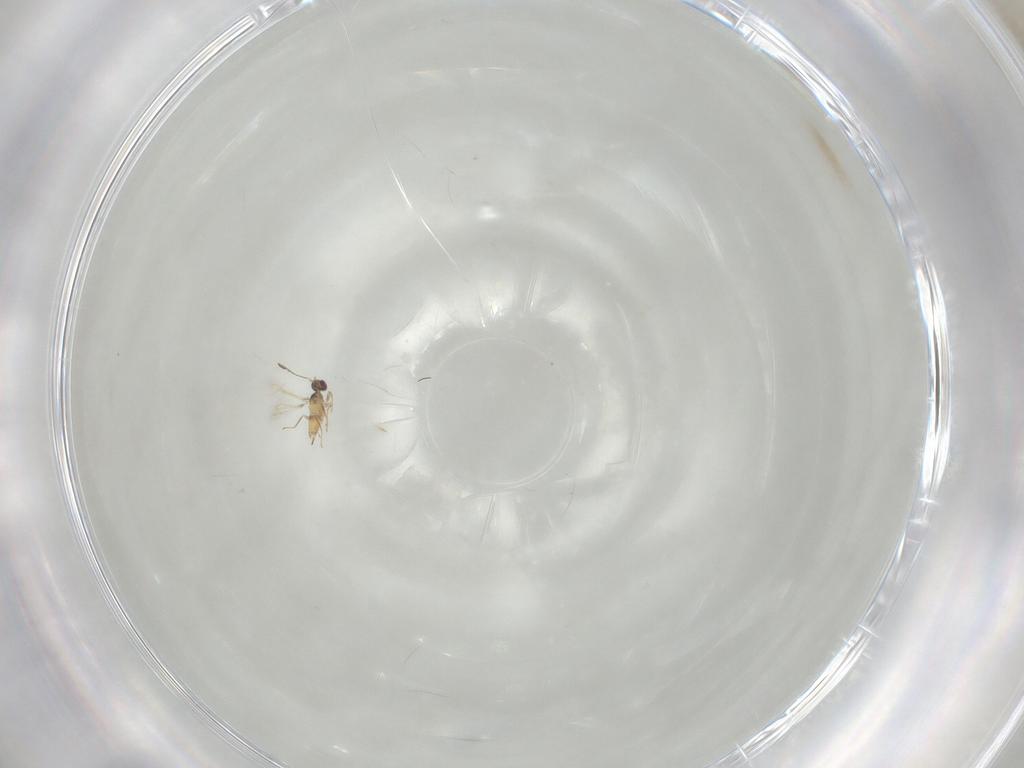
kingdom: Animalia
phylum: Arthropoda
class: Insecta
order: Hymenoptera
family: Mymaridae
